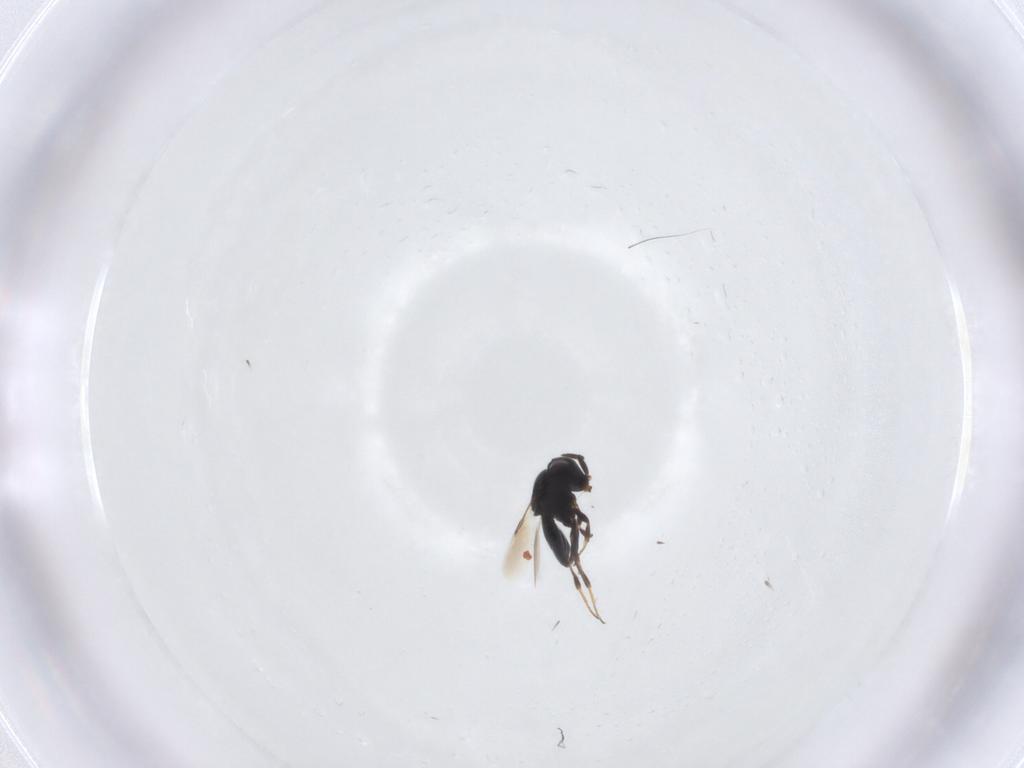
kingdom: Animalia
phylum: Arthropoda
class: Insecta
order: Hymenoptera
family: Scelionidae
